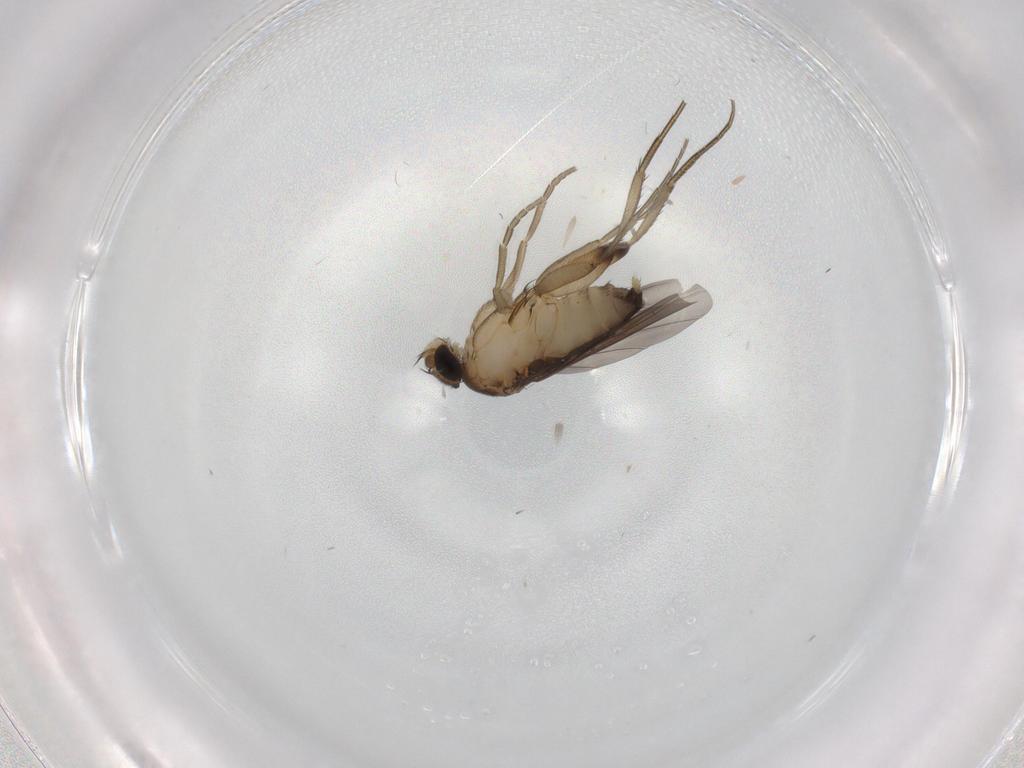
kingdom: Animalia
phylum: Arthropoda
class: Insecta
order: Diptera
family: Phoridae
